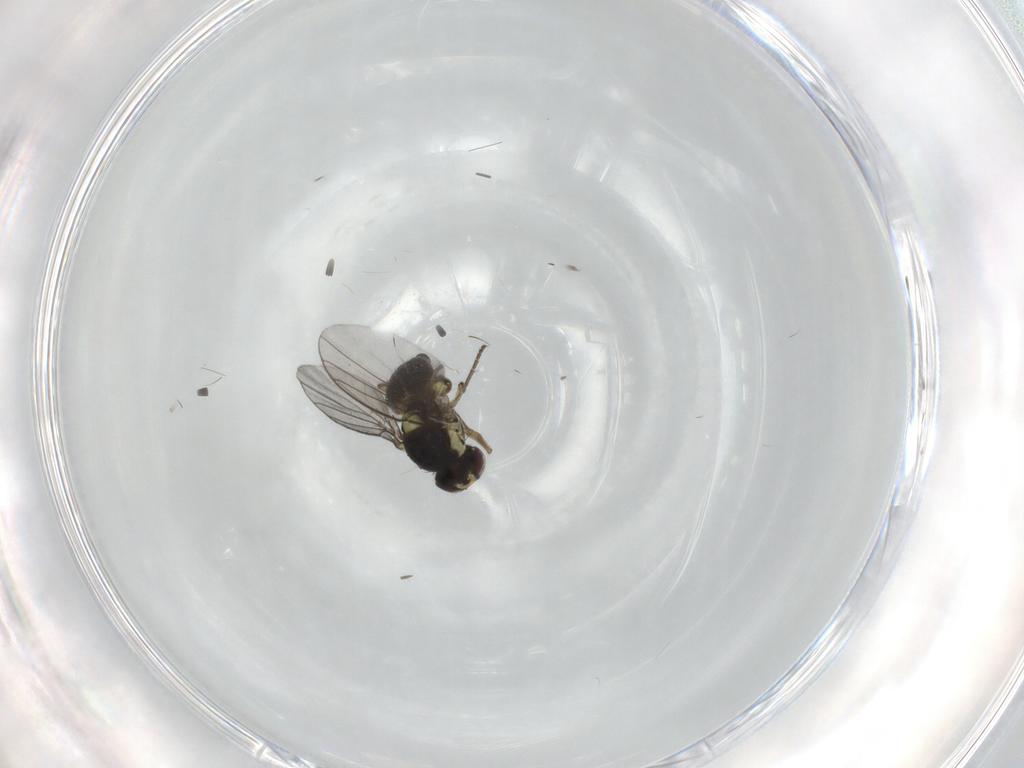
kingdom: Animalia
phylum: Arthropoda
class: Insecta
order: Diptera
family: Agromyzidae
